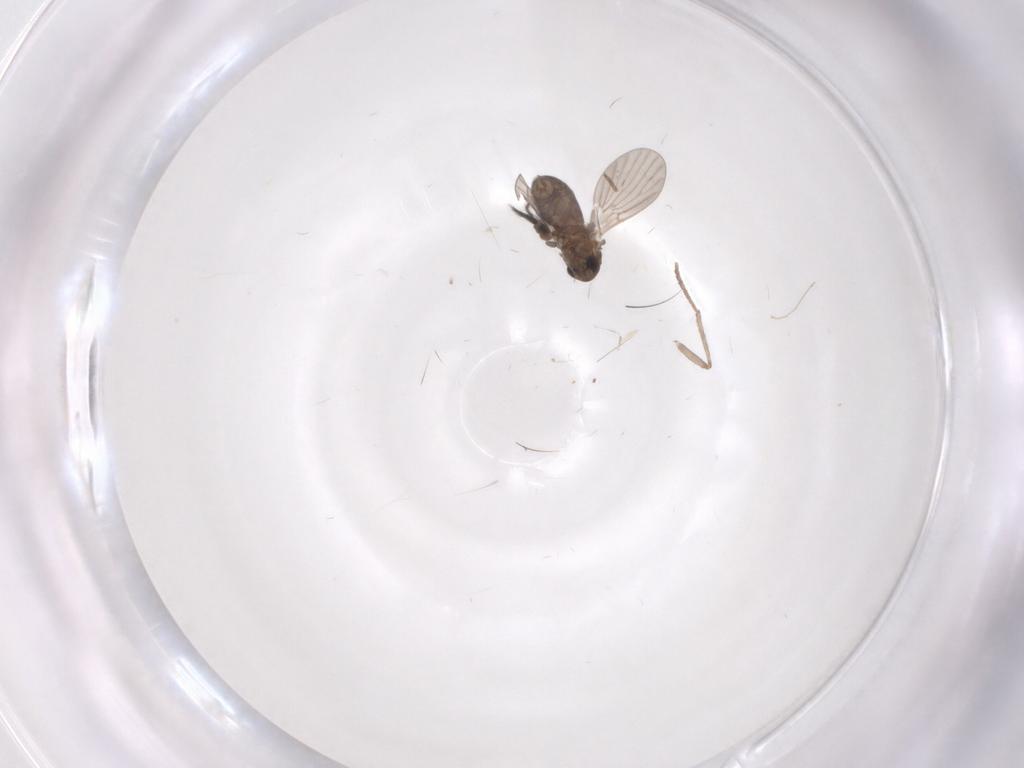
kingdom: Animalia
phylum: Arthropoda
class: Insecta
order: Diptera
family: Ceratopogonidae
